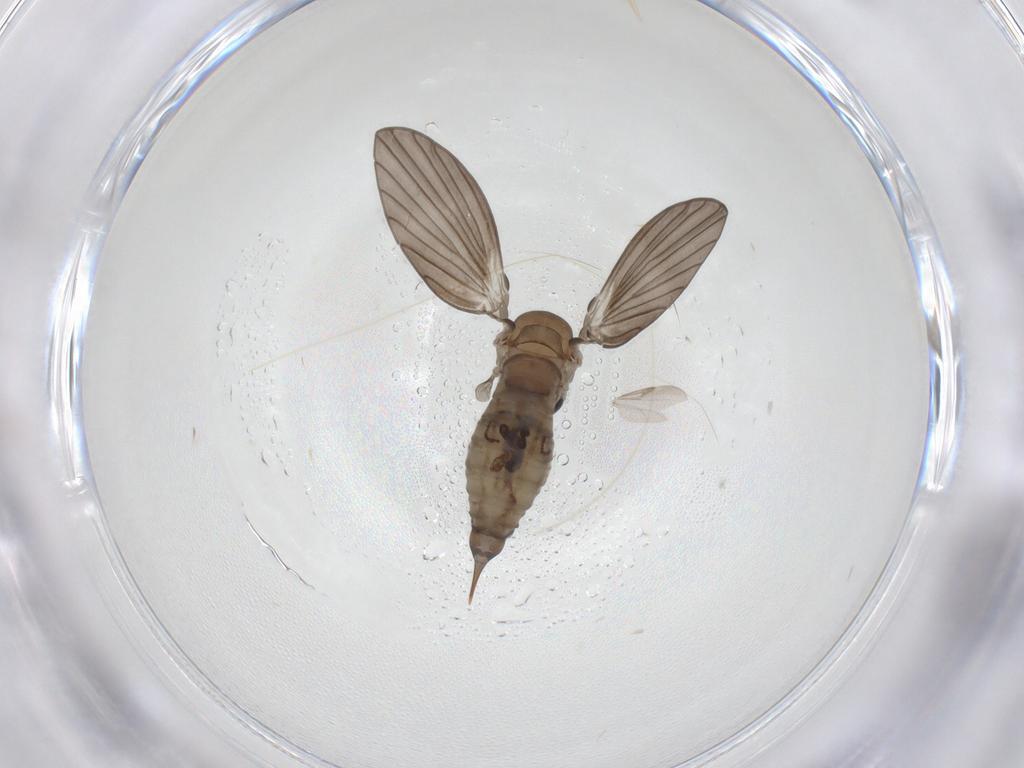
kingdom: Animalia
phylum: Arthropoda
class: Insecta
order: Diptera
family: Psychodidae
